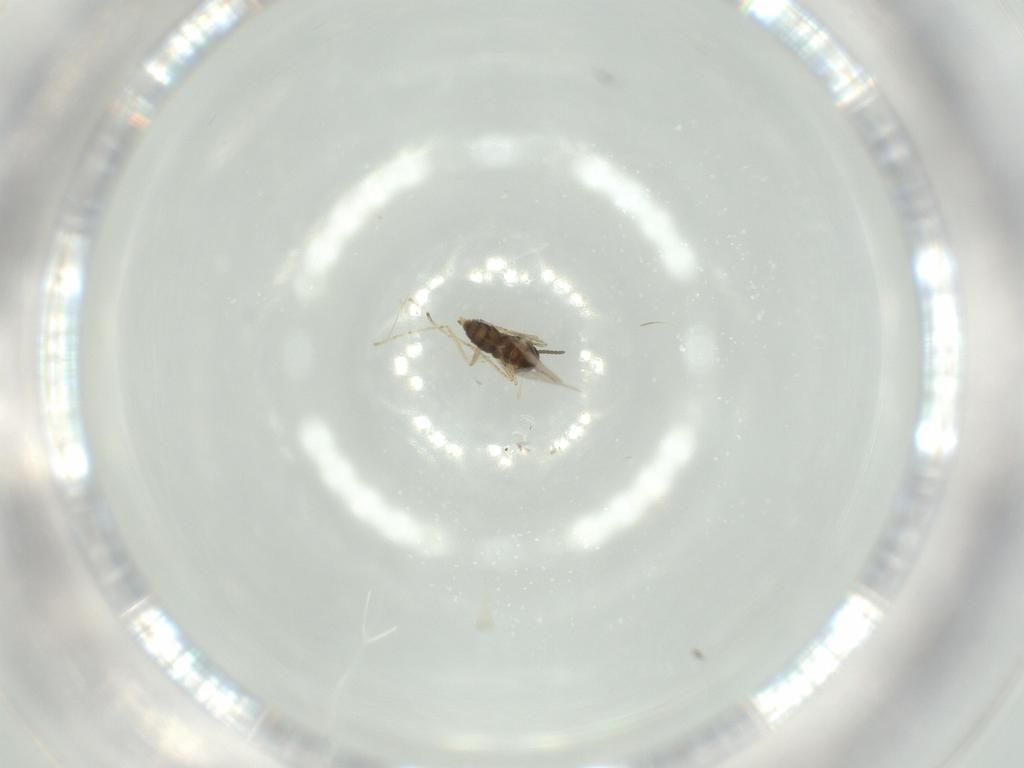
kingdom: Animalia
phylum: Arthropoda
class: Insecta
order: Diptera
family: Cecidomyiidae
